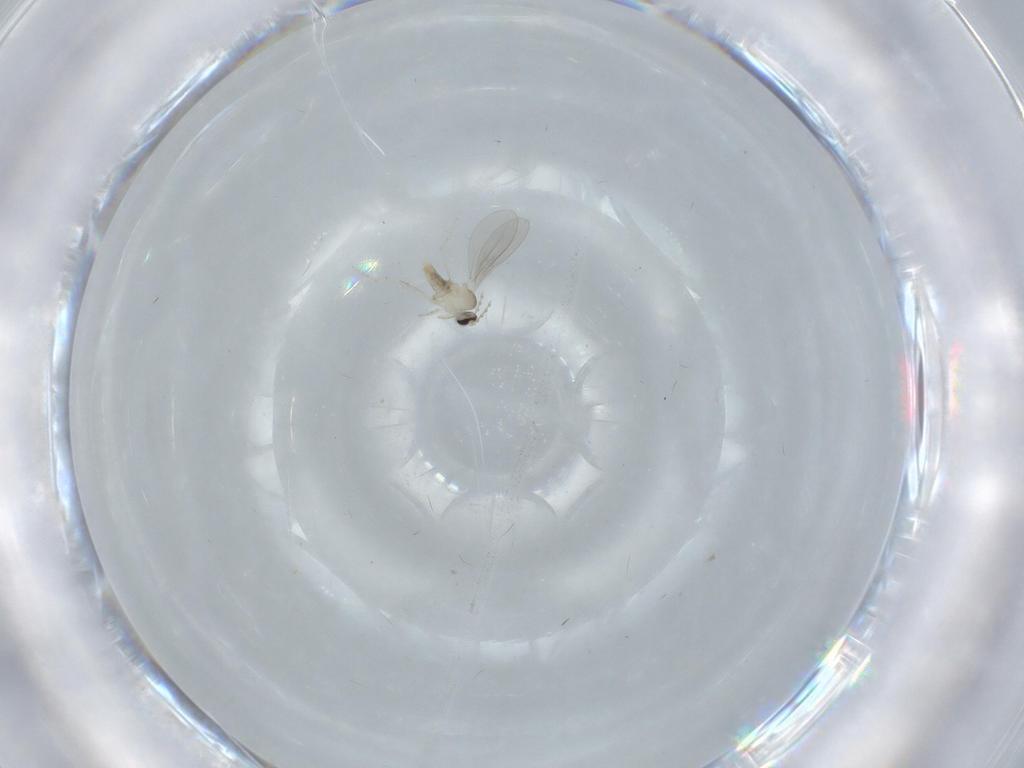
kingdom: Animalia
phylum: Arthropoda
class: Insecta
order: Diptera
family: Cecidomyiidae
